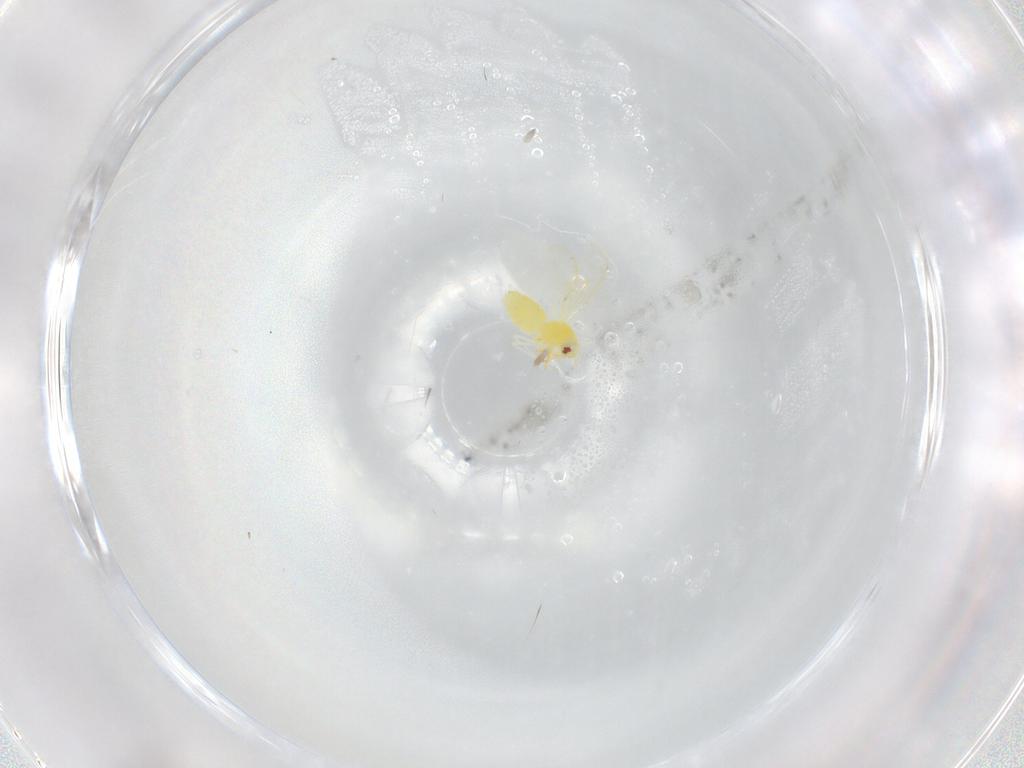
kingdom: Animalia
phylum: Arthropoda
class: Insecta
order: Hemiptera
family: Aleyrodidae
